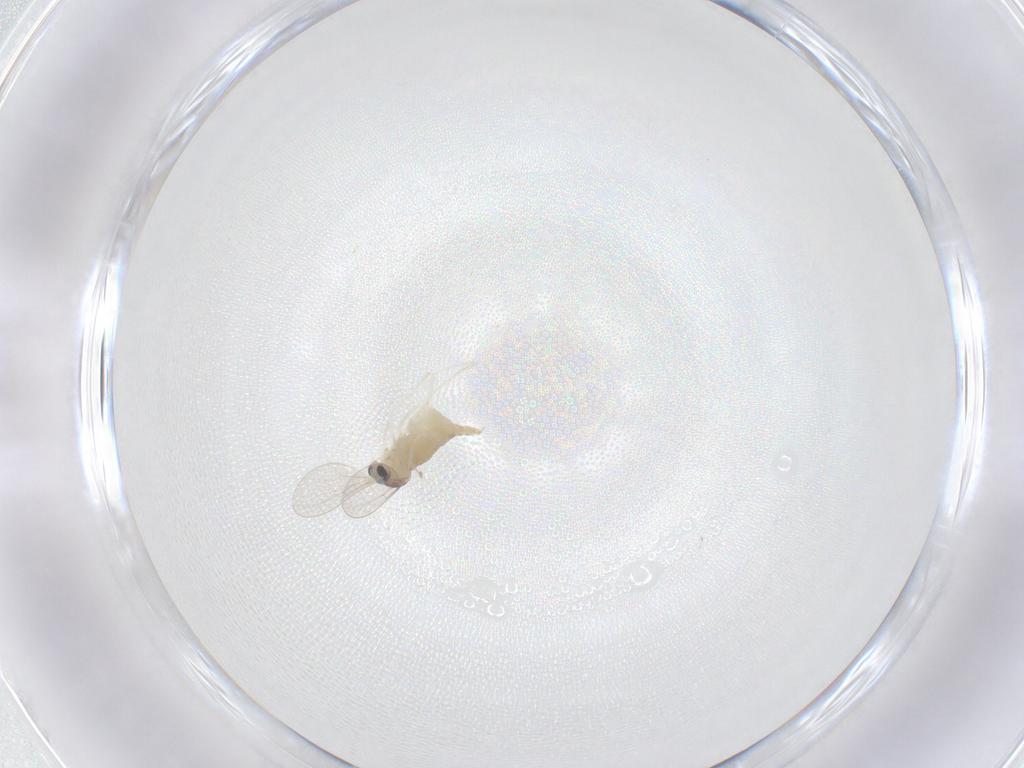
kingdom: Animalia
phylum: Arthropoda
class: Insecta
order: Diptera
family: Cecidomyiidae
